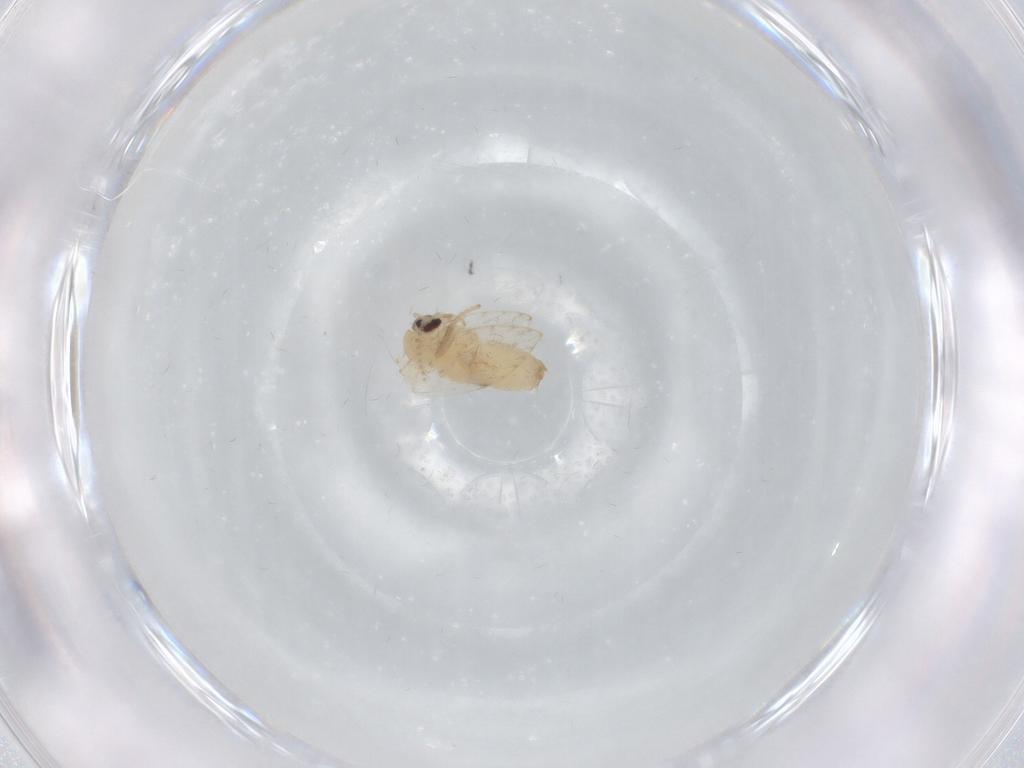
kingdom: Animalia
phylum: Arthropoda
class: Insecta
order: Diptera
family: Psychodidae
